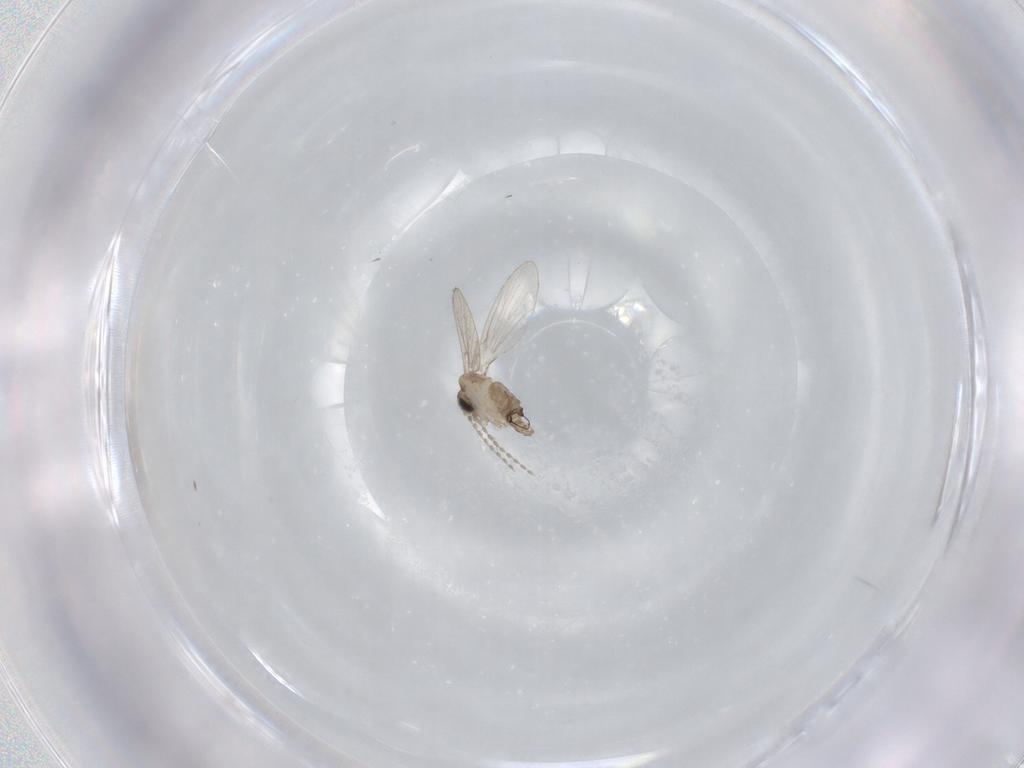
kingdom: Animalia
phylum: Arthropoda
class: Insecta
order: Diptera
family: Psychodidae
